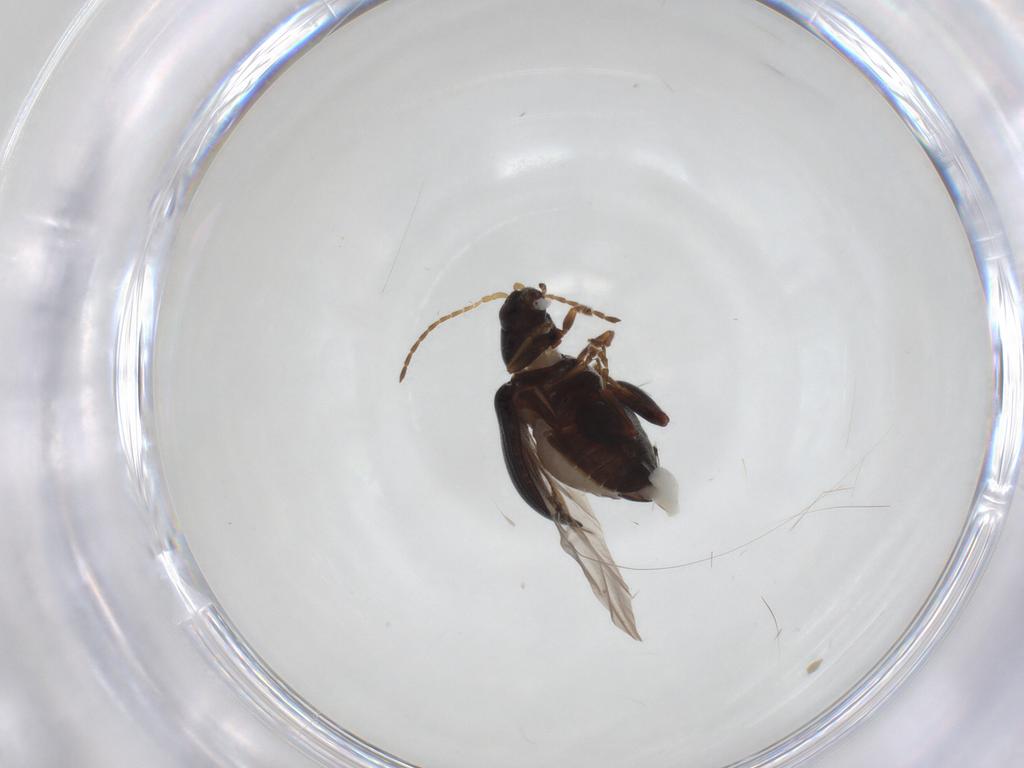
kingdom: Animalia
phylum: Arthropoda
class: Insecta
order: Coleoptera
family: Chrysomelidae
